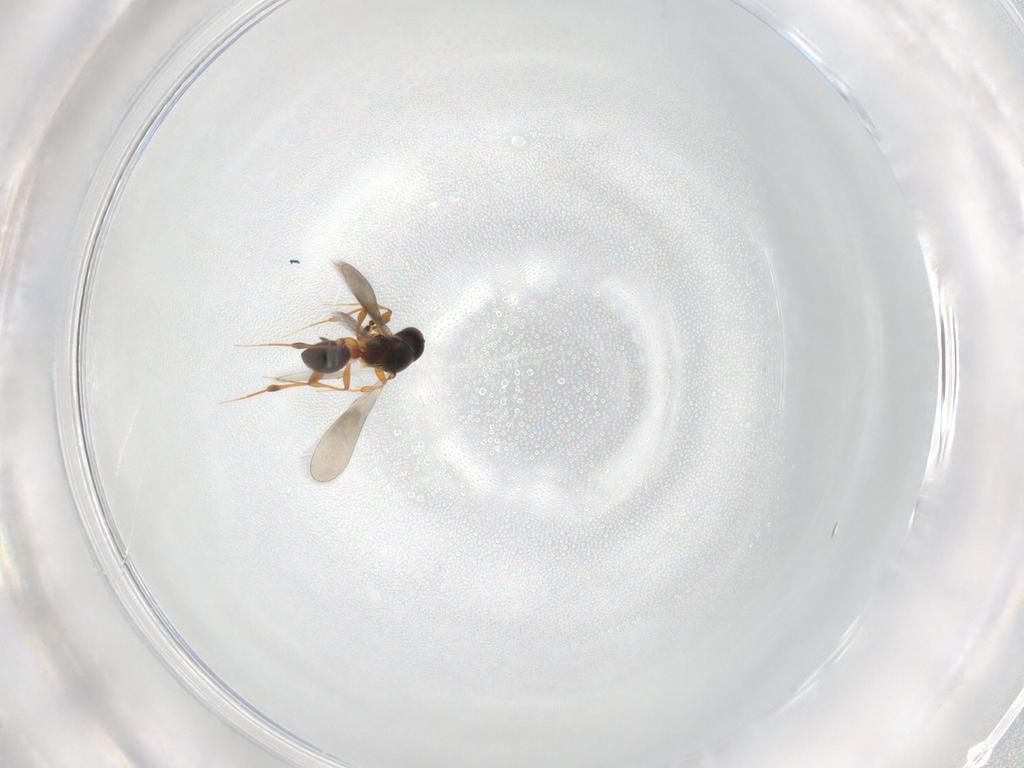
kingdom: Animalia
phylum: Arthropoda
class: Insecta
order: Hymenoptera
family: Platygastridae
